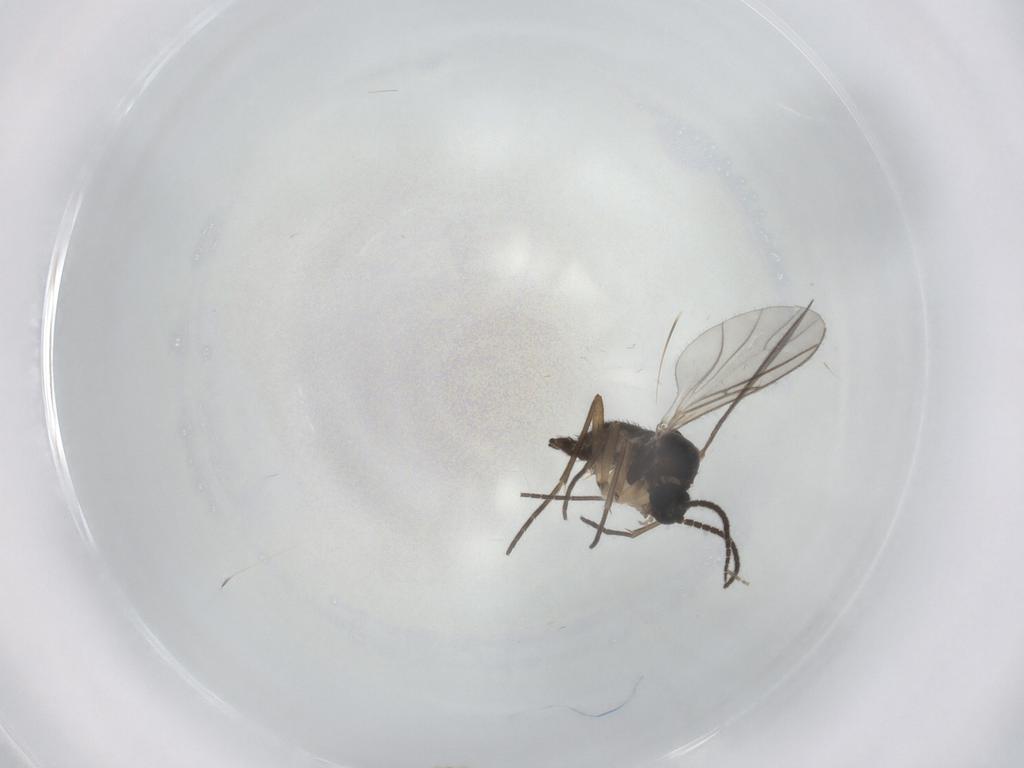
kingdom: Animalia
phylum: Arthropoda
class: Insecta
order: Diptera
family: Sciaridae
